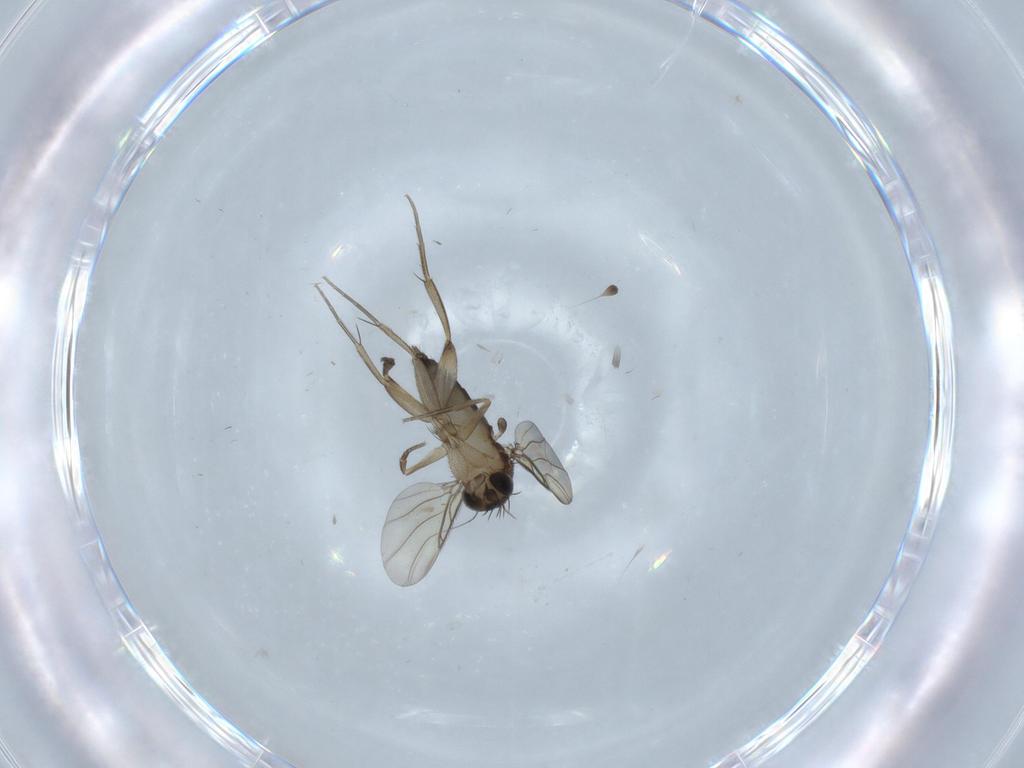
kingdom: Animalia
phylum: Arthropoda
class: Insecta
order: Diptera
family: Phoridae
